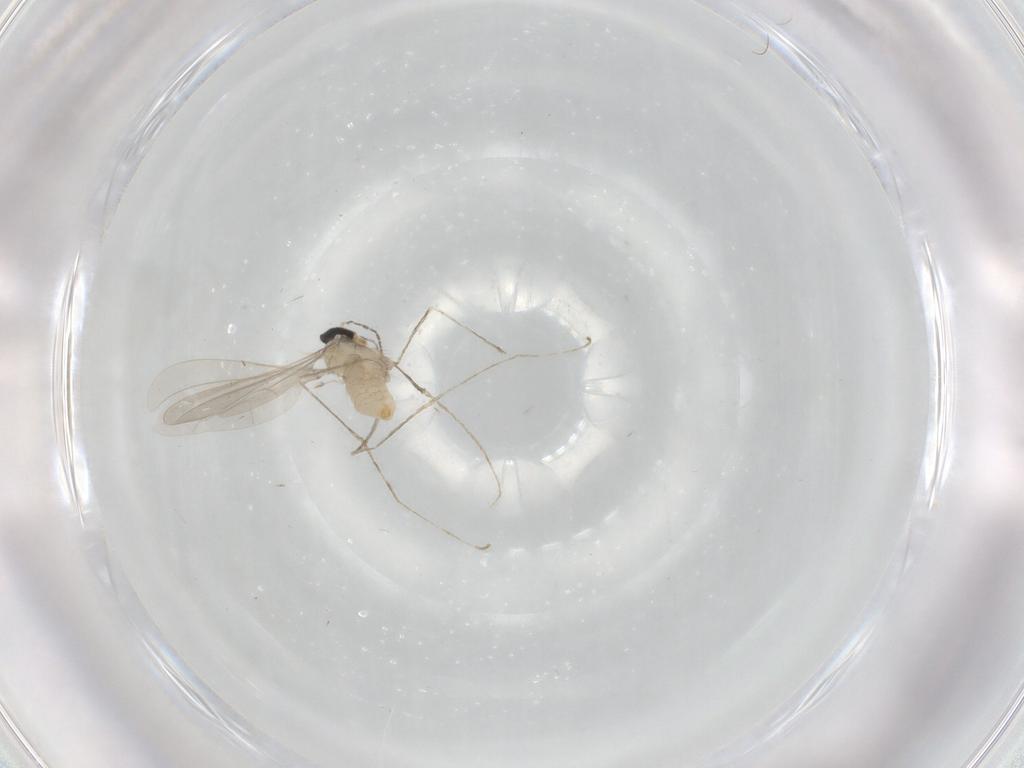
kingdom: Animalia
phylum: Arthropoda
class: Insecta
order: Diptera
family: Cecidomyiidae
